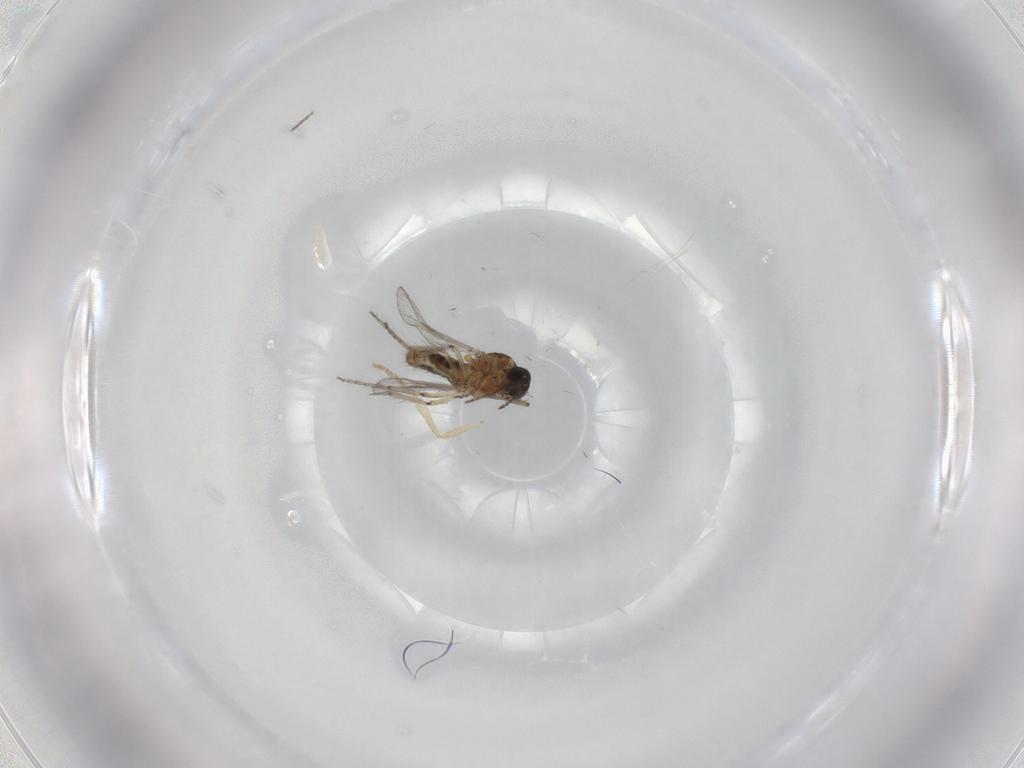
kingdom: Animalia
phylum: Arthropoda
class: Insecta
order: Diptera
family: Ceratopogonidae
